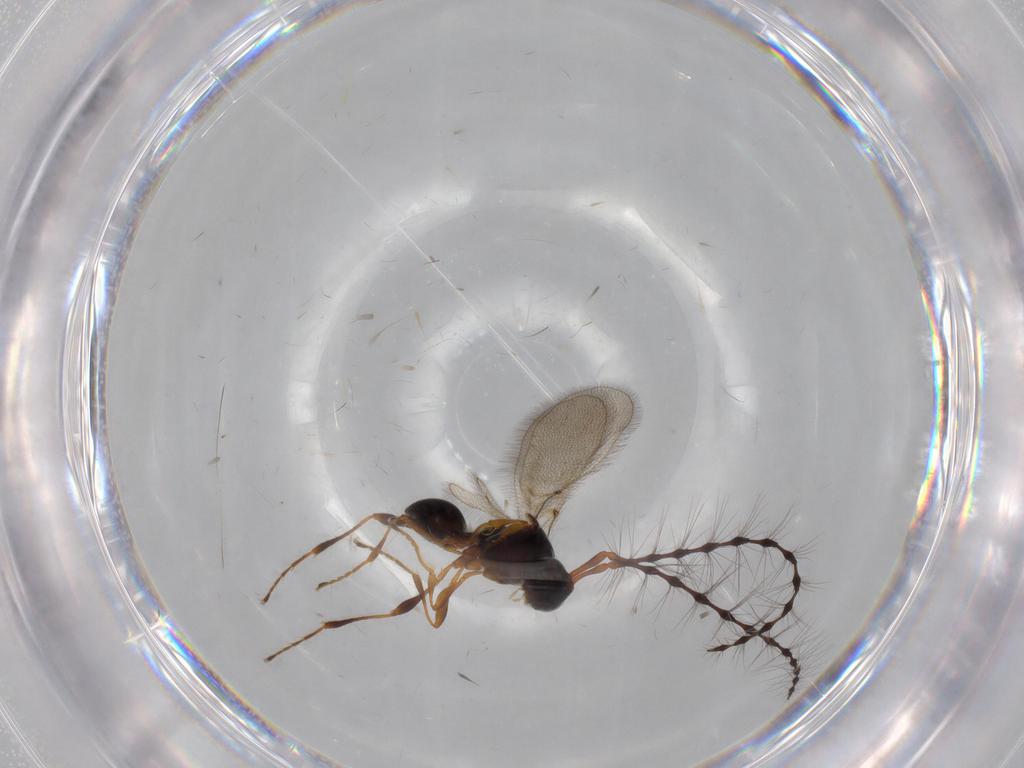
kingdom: Animalia
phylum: Arthropoda
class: Insecta
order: Hymenoptera
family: Diapriidae
